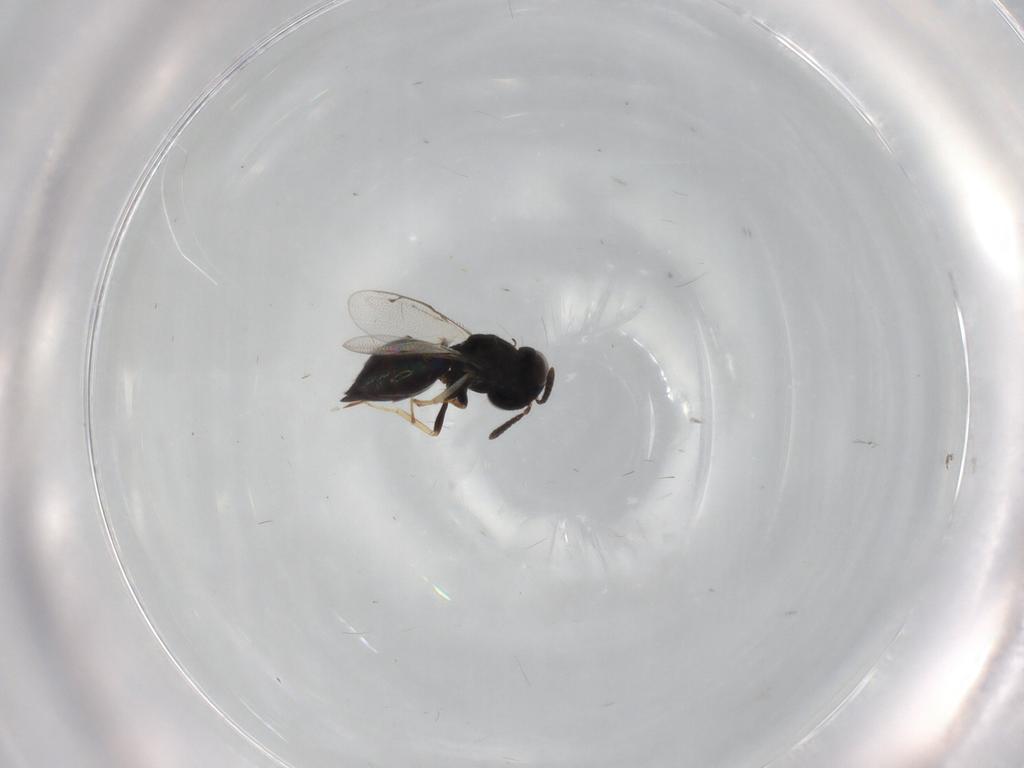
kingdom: Animalia
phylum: Arthropoda
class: Insecta
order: Hymenoptera
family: Pteromalidae
